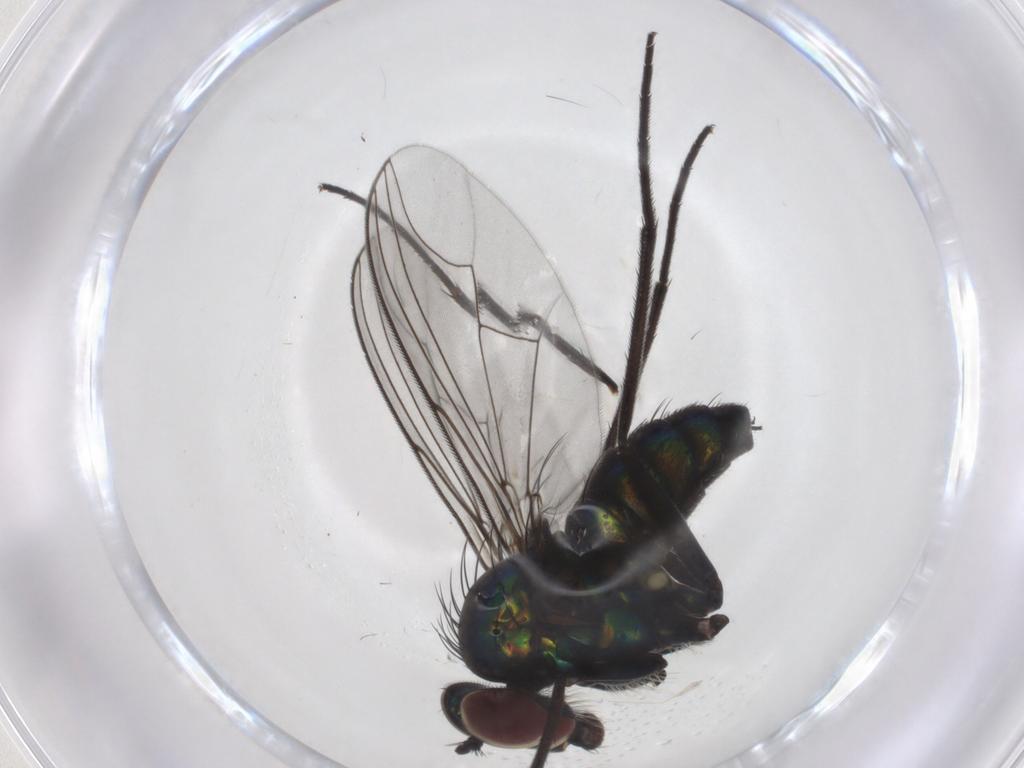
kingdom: Animalia
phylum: Arthropoda
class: Insecta
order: Diptera
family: Dolichopodidae
